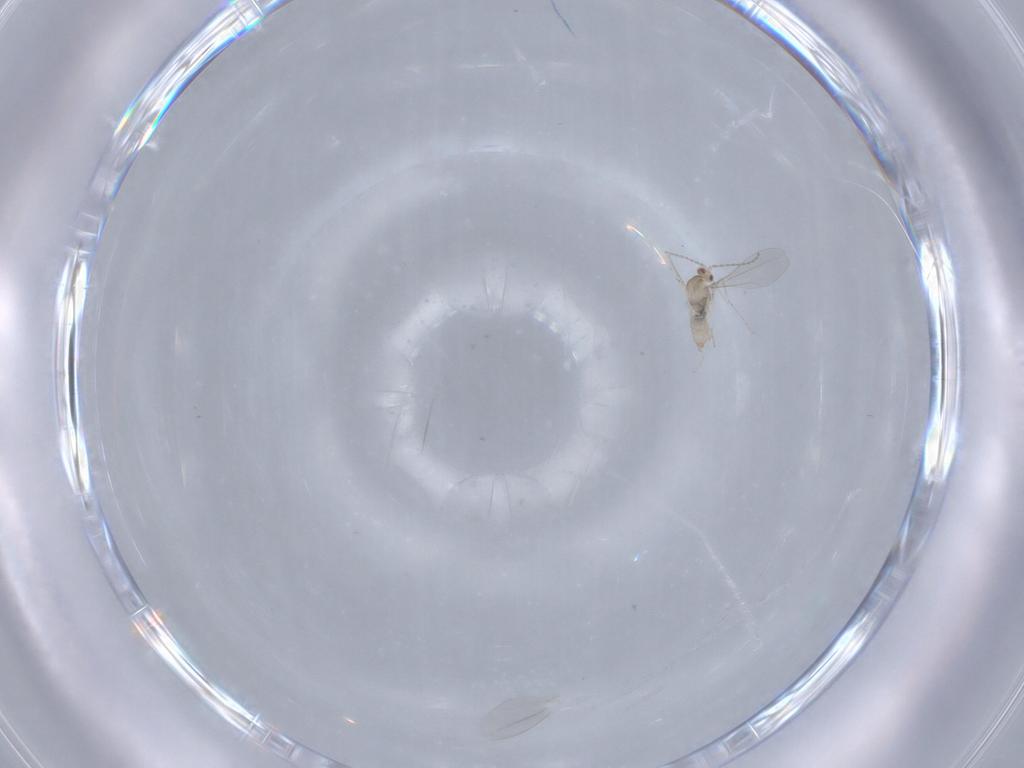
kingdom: Animalia
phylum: Arthropoda
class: Insecta
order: Diptera
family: Cecidomyiidae
